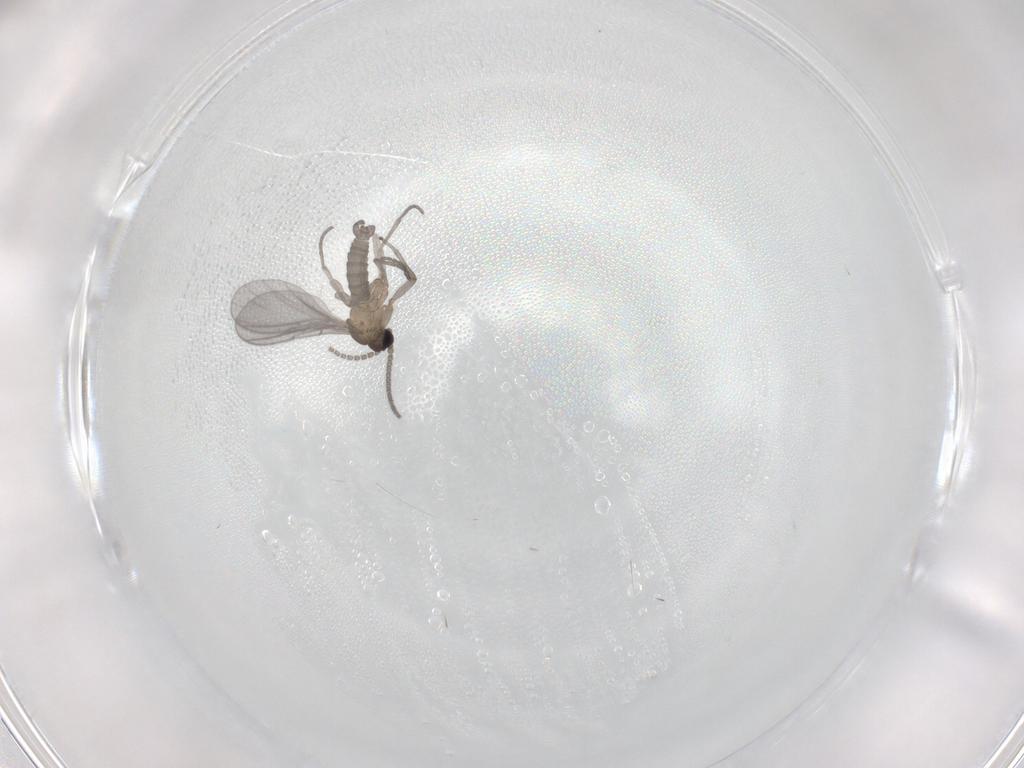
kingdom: Animalia
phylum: Arthropoda
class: Insecta
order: Diptera
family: Sciaridae
